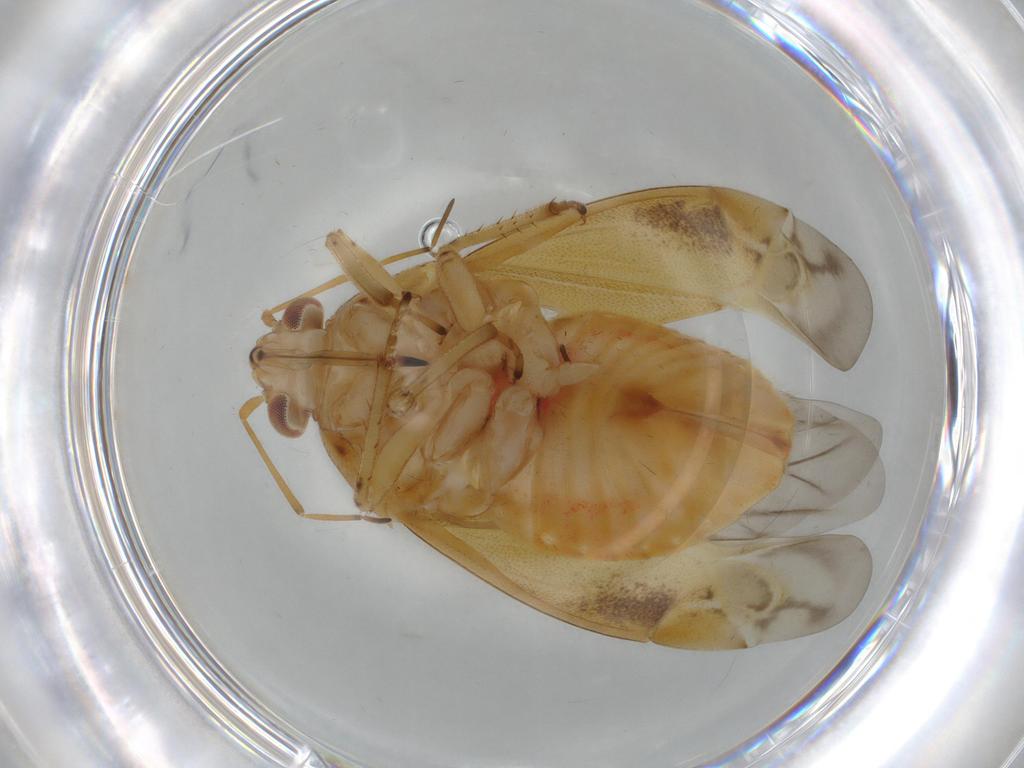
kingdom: Animalia
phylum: Arthropoda
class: Insecta
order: Hemiptera
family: Miridae
